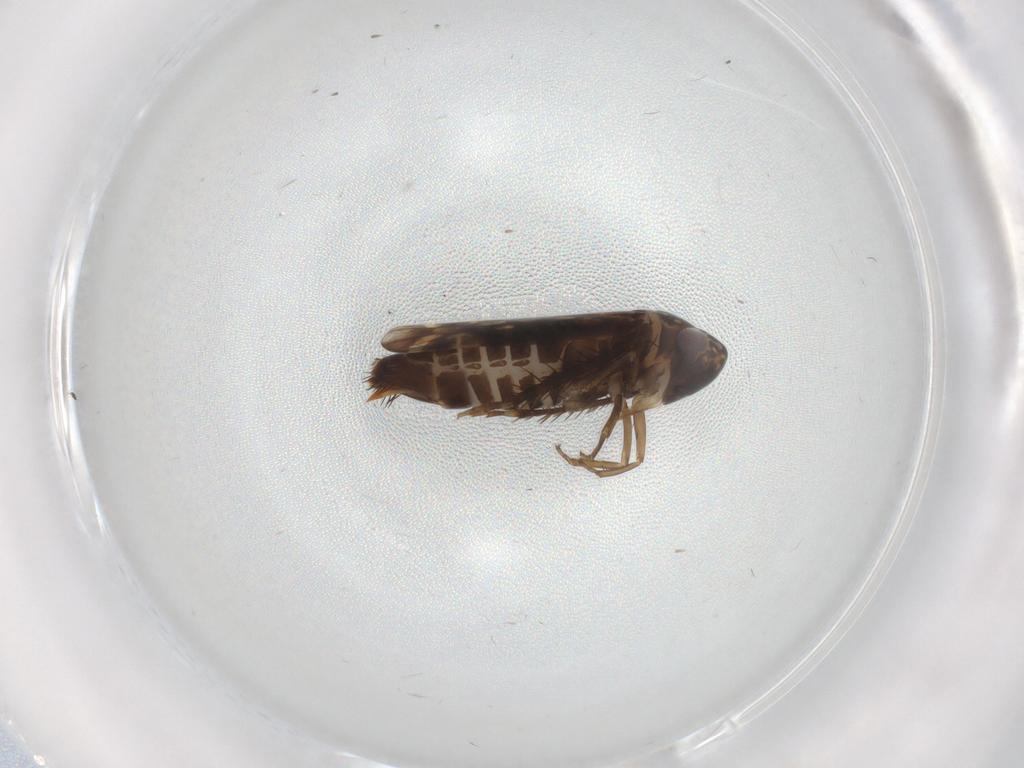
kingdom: Animalia
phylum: Arthropoda
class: Insecta
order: Hemiptera
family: Cicadellidae
